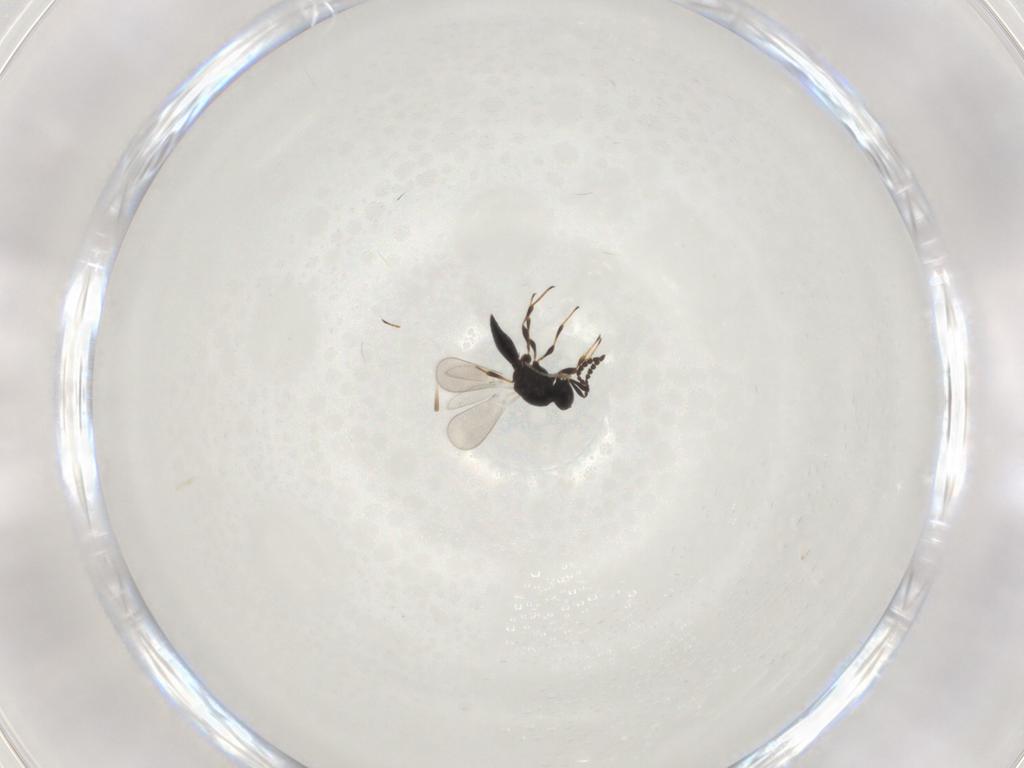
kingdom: Animalia
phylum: Arthropoda
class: Insecta
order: Hymenoptera
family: Platygastridae
